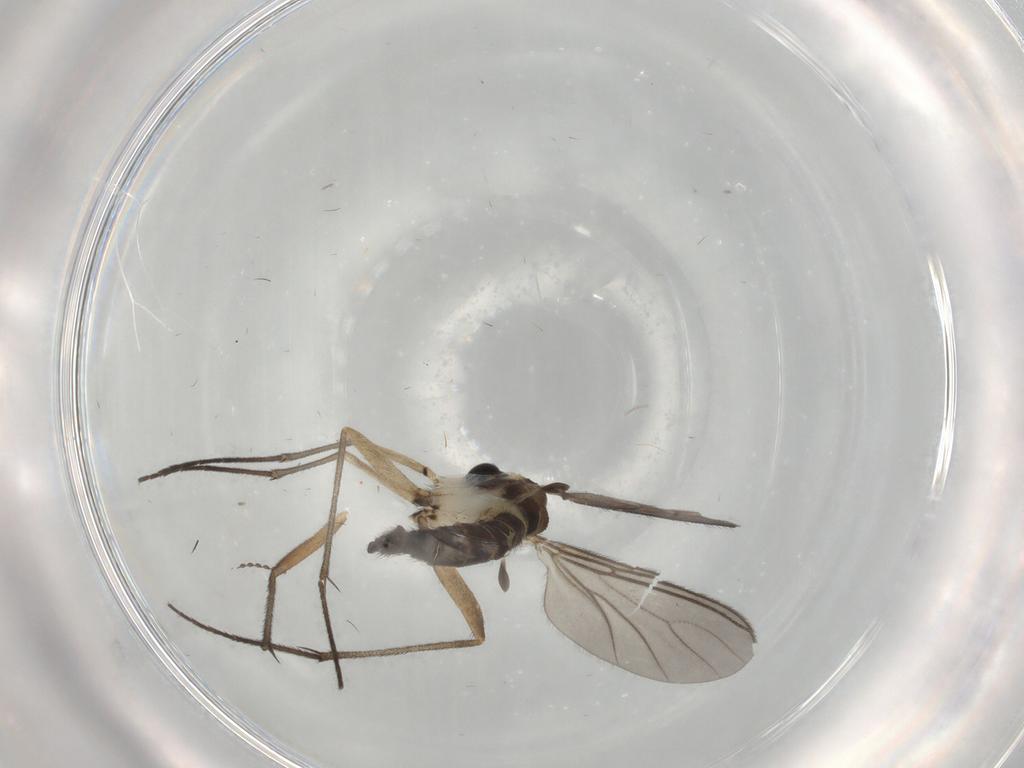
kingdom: Animalia
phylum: Arthropoda
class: Insecta
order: Diptera
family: Sciaridae
